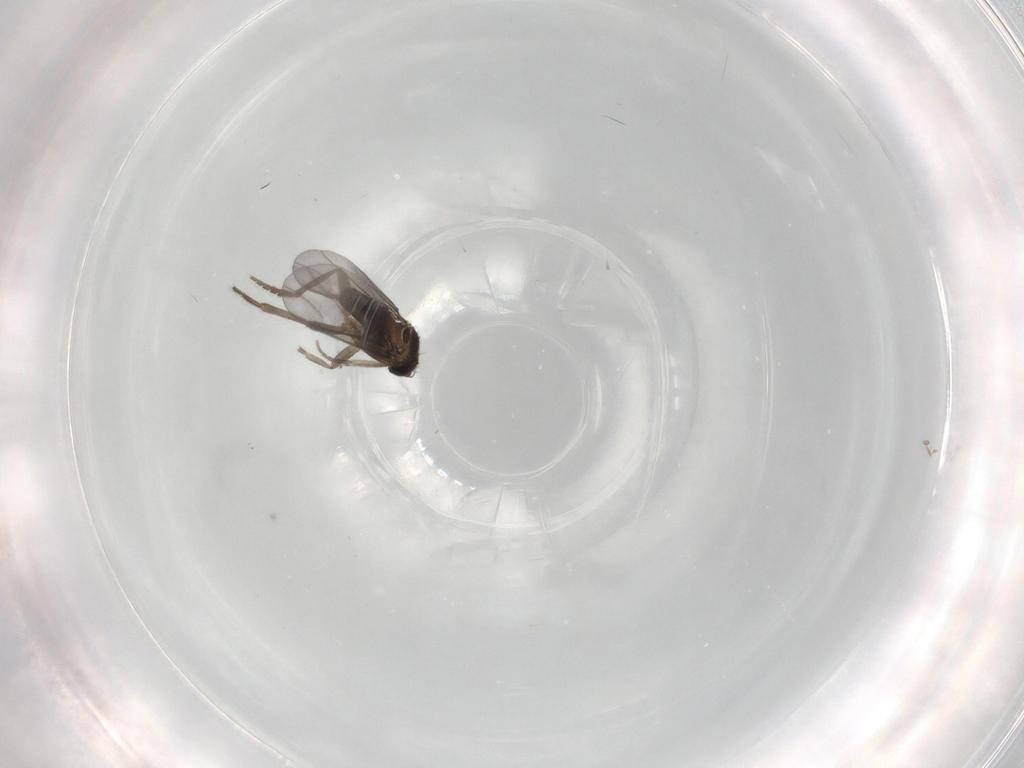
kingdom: Animalia
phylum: Arthropoda
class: Insecta
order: Diptera
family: Phoridae
